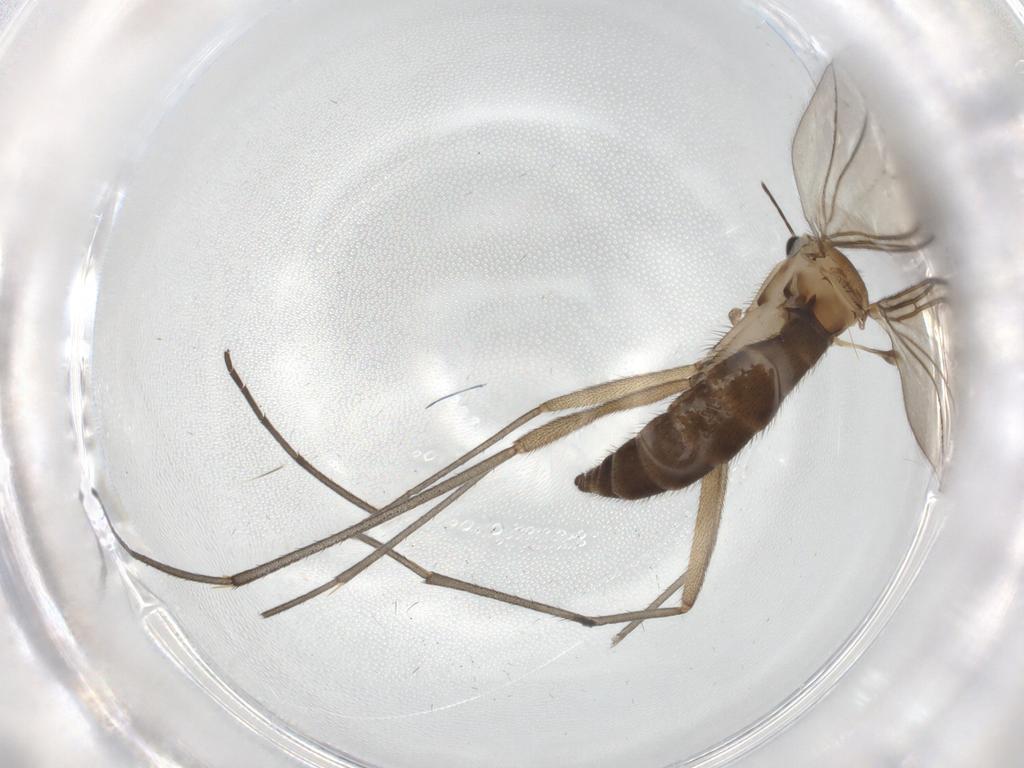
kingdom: Animalia
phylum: Arthropoda
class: Insecta
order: Diptera
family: Sciaridae
